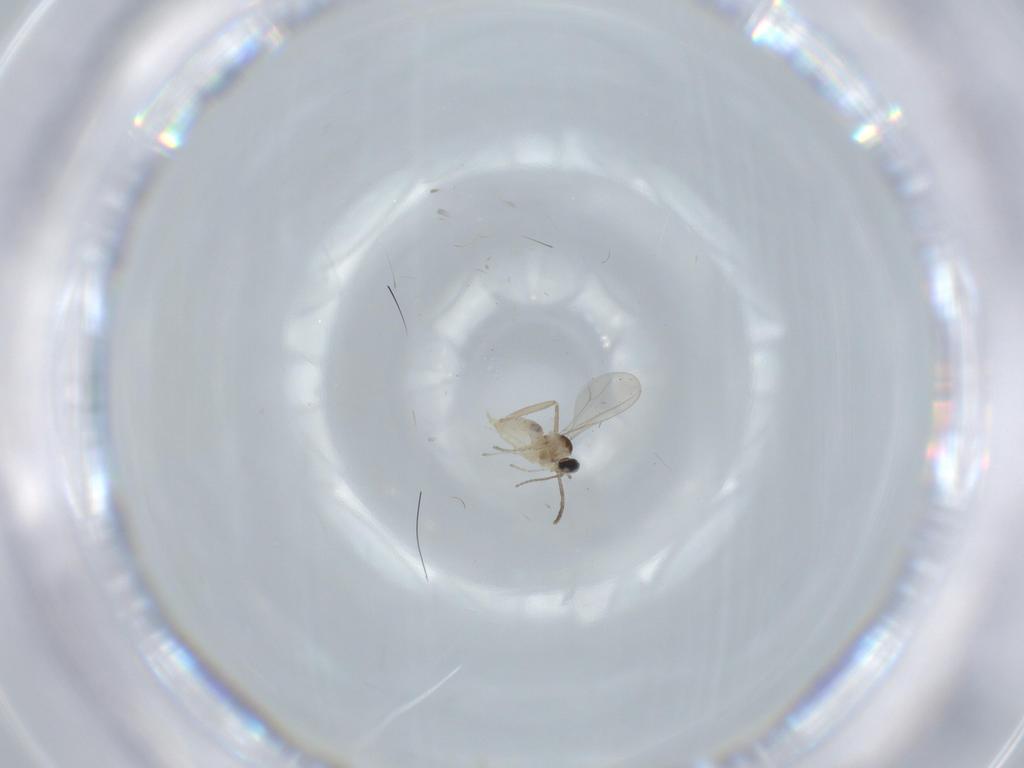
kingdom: Animalia
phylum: Arthropoda
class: Insecta
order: Diptera
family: Cecidomyiidae
